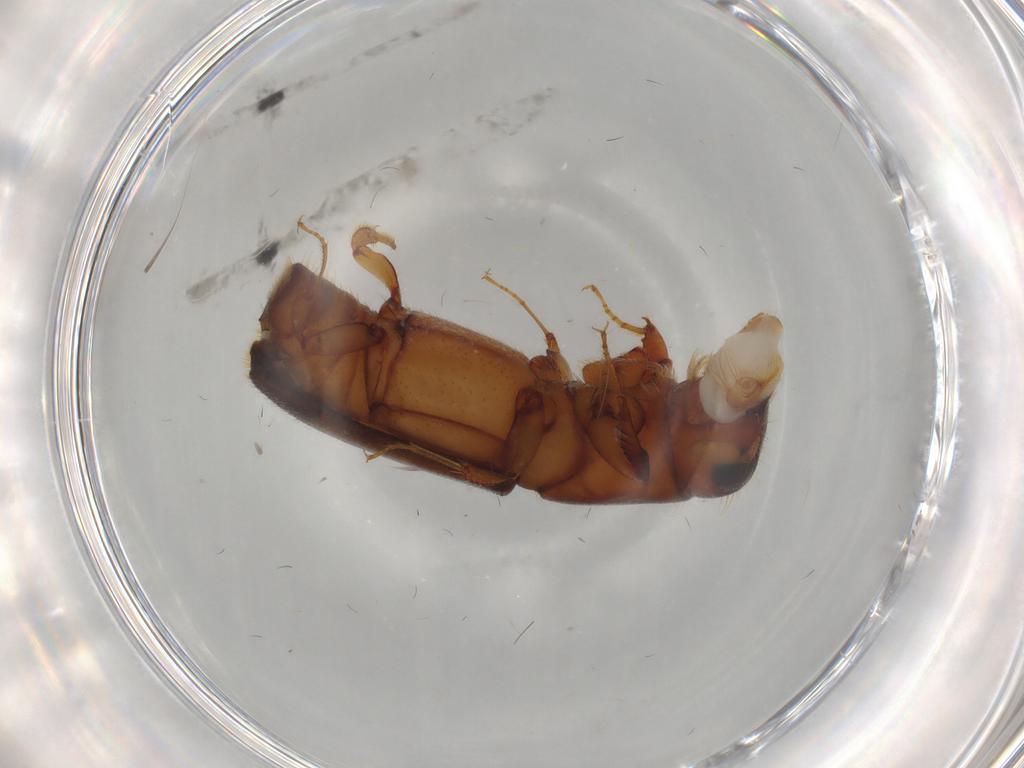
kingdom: Animalia
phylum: Arthropoda
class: Insecta
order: Coleoptera
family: Curculionidae
